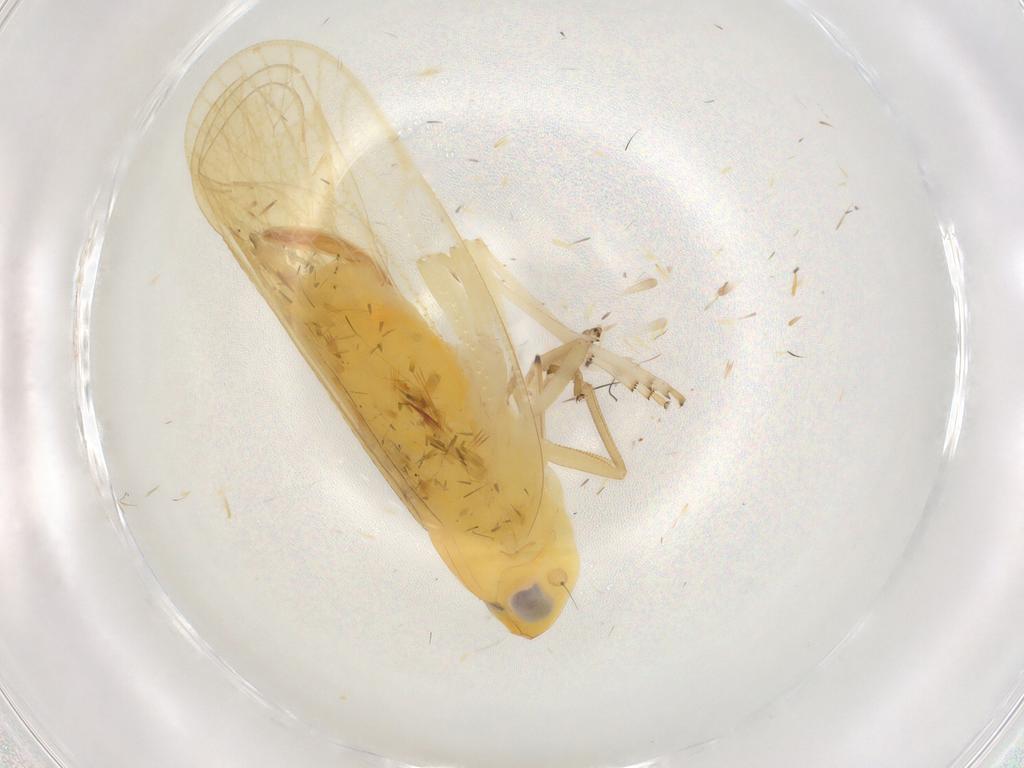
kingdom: Animalia
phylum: Arthropoda
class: Insecta
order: Hemiptera
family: Cixiidae
